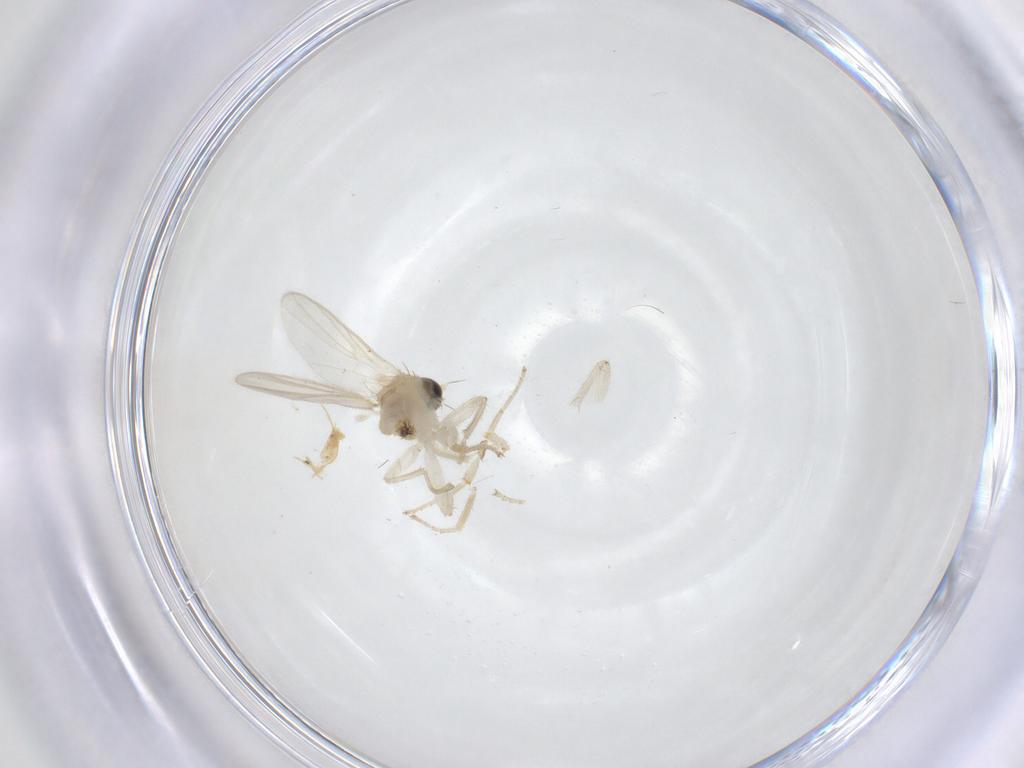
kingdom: Animalia
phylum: Arthropoda
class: Insecta
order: Diptera
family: Hybotidae
